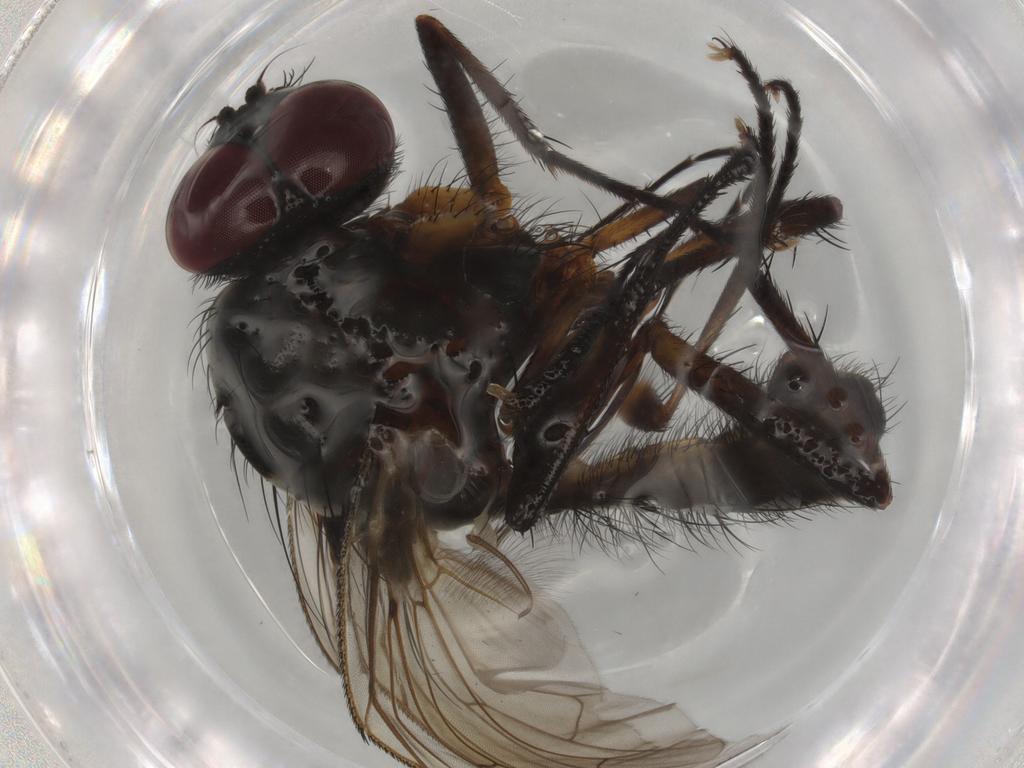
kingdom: Animalia
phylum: Arthropoda
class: Insecta
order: Diptera
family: Anthomyiidae
